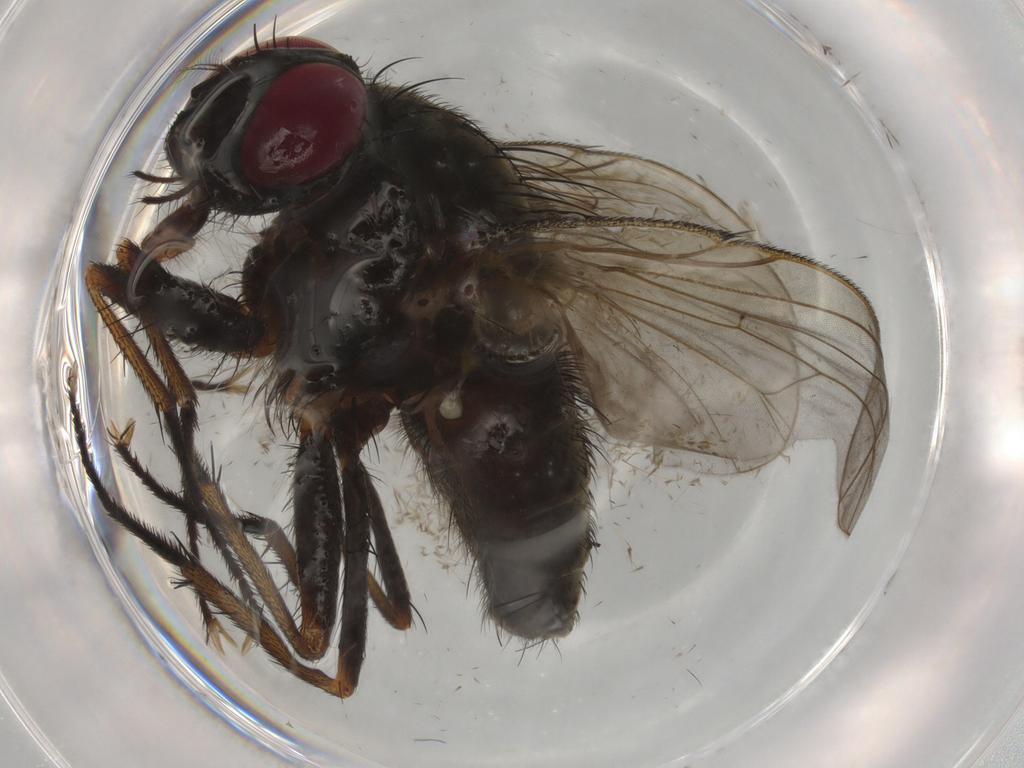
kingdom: Animalia
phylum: Arthropoda
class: Insecta
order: Diptera
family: Muscidae
